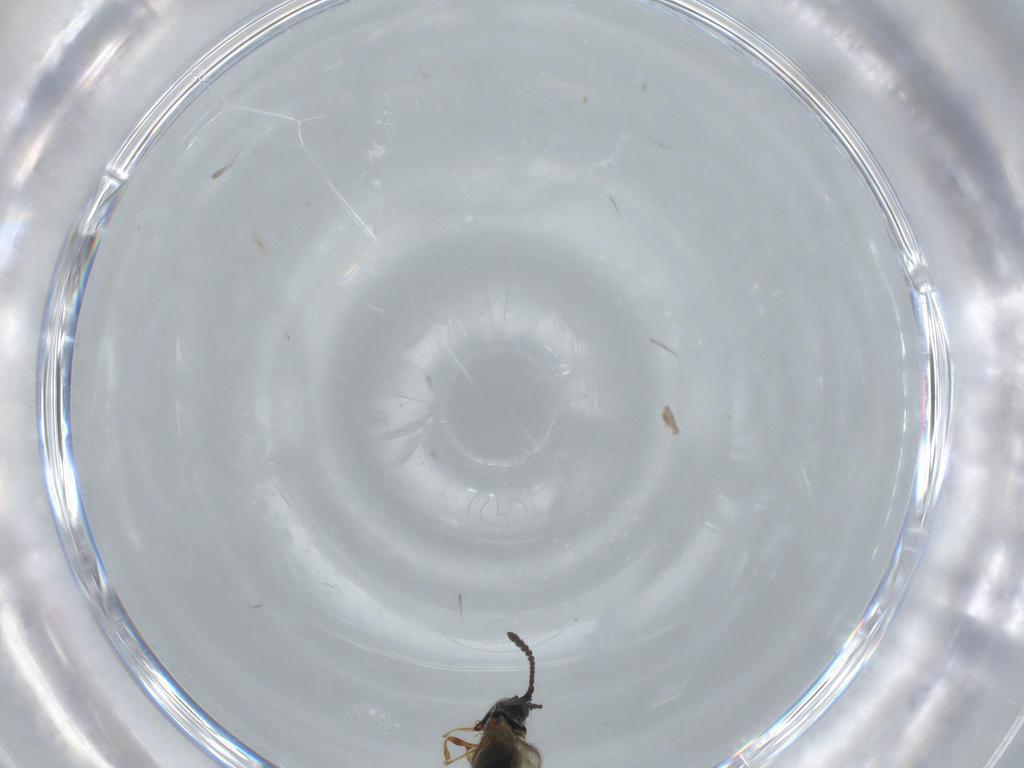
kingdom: Animalia
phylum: Arthropoda
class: Insecta
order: Hymenoptera
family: Diapriidae
